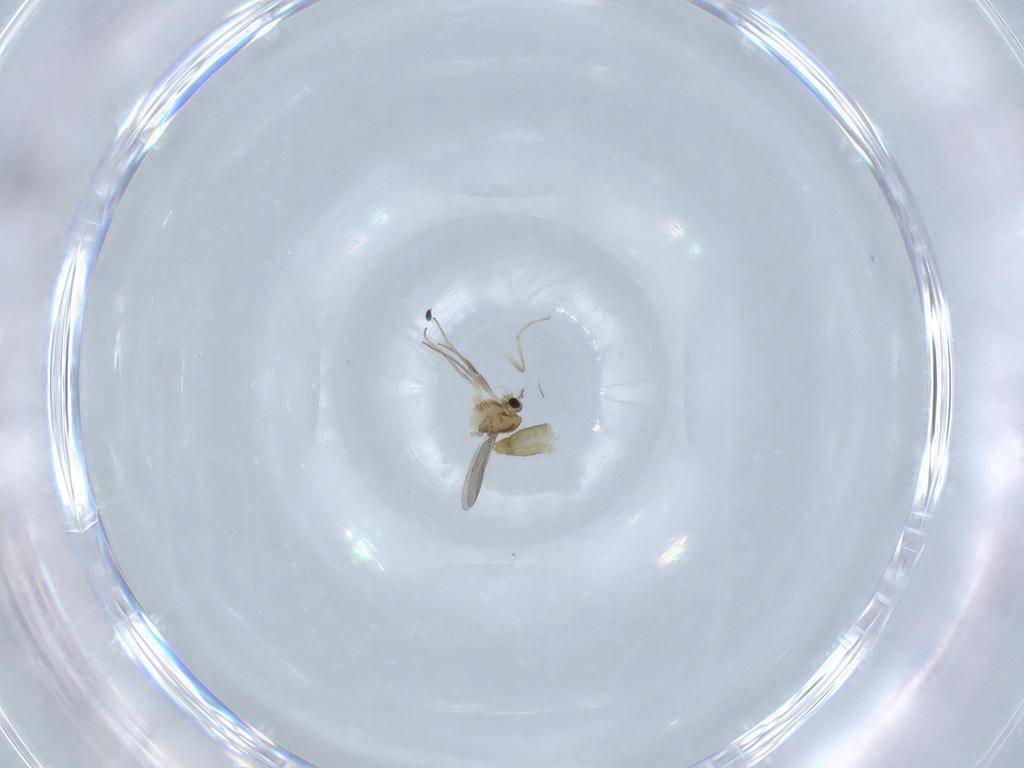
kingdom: Animalia
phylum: Arthropoda
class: Insecta
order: Diptera
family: Chironomidae
